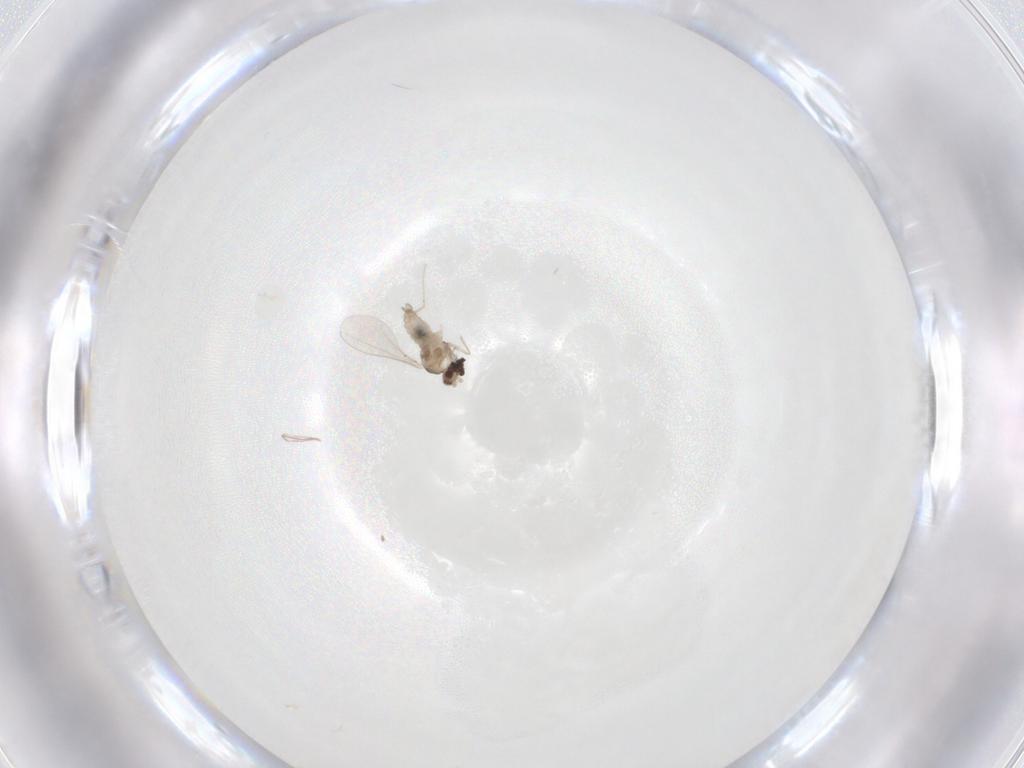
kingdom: Animalia
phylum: Arthropoda
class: Insecta
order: Diptera
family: Cecidomyiidae
